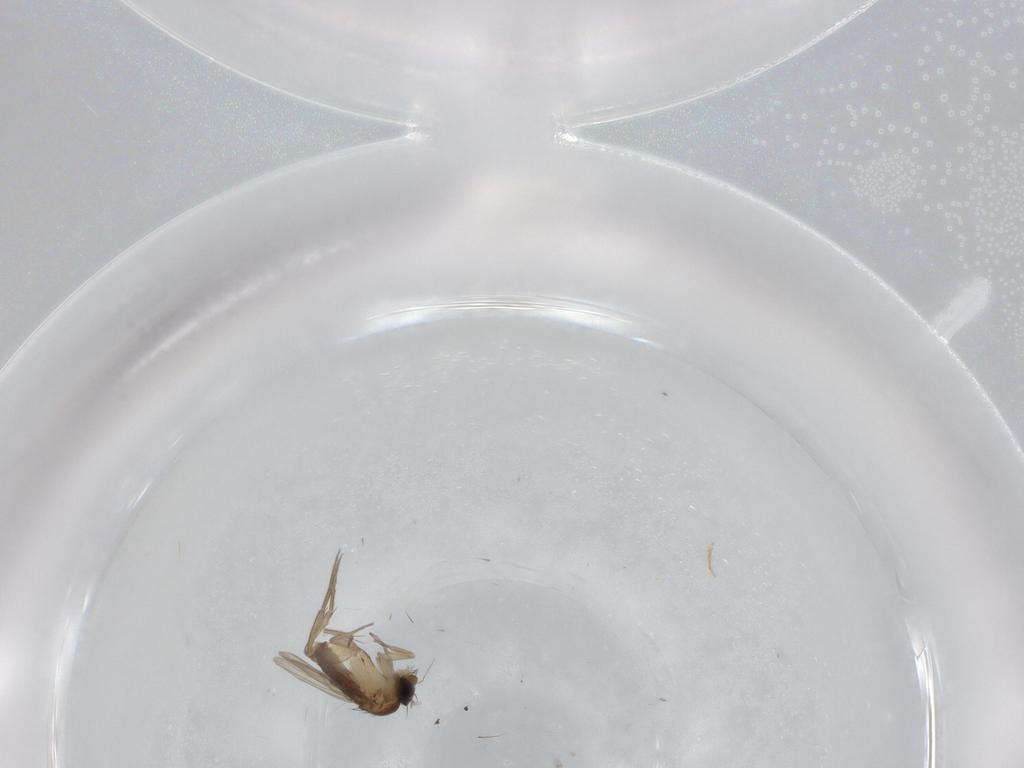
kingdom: Animalia
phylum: Arthropoda
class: Insecta
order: Diptera
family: Phoridae
